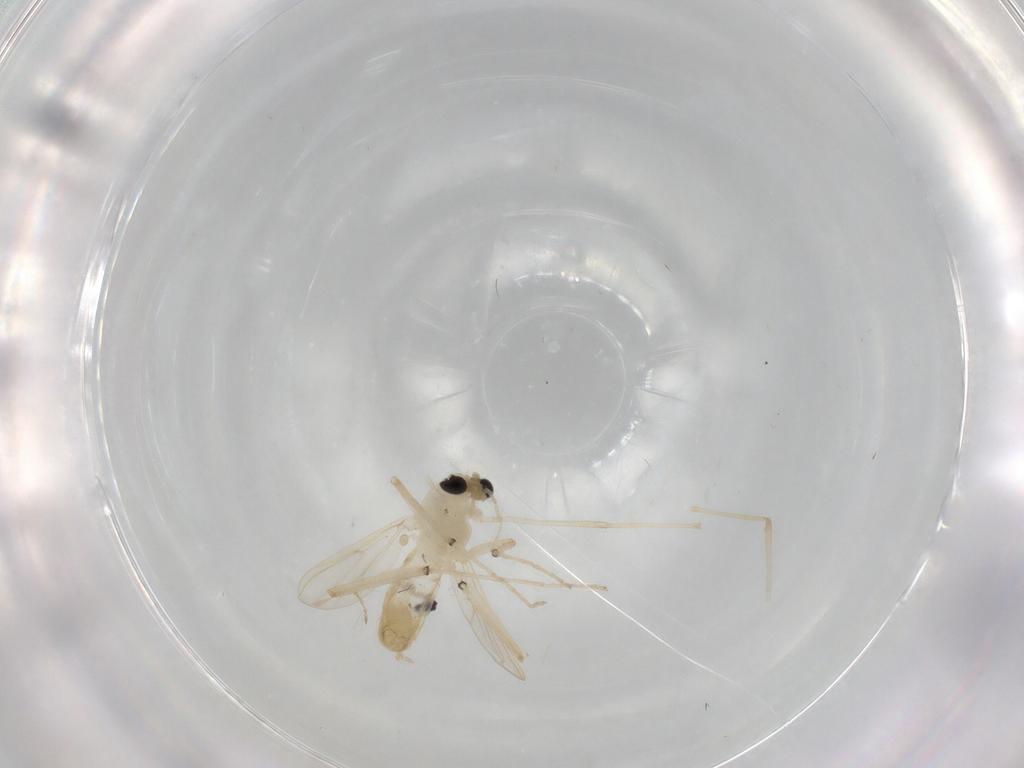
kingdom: Animalia
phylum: Arthropoda
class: Insecta
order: Diptera
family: Chironomidae
